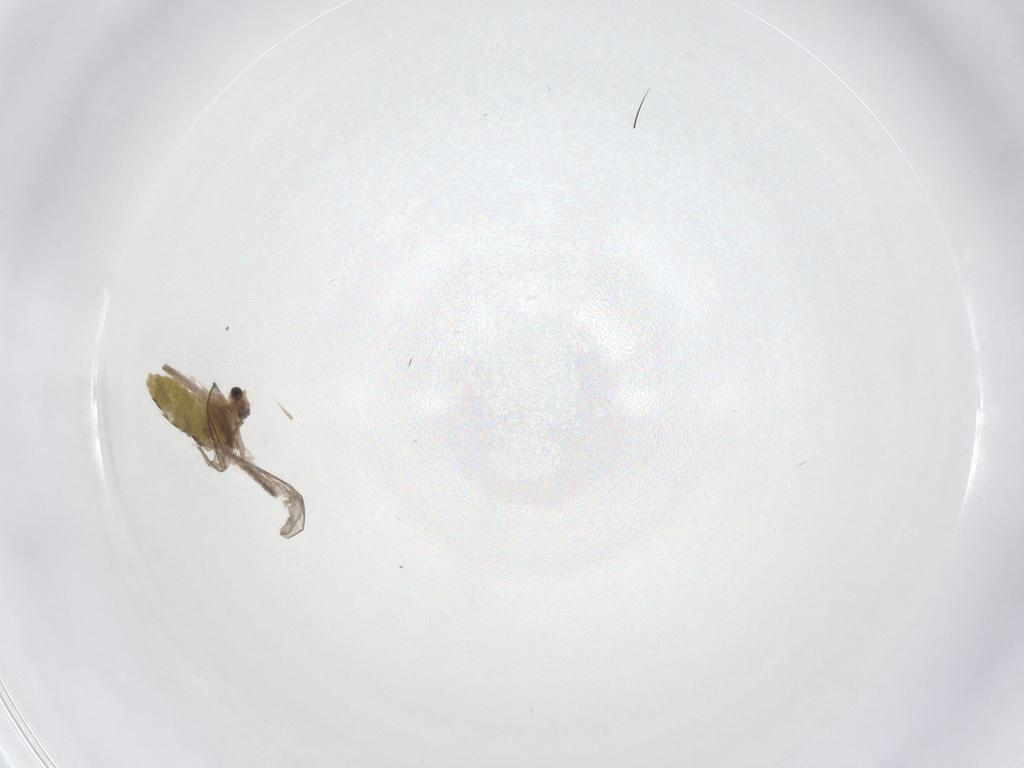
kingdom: Animalia
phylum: Arthropoda
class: Insecta
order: Diptera
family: Chironomidae
